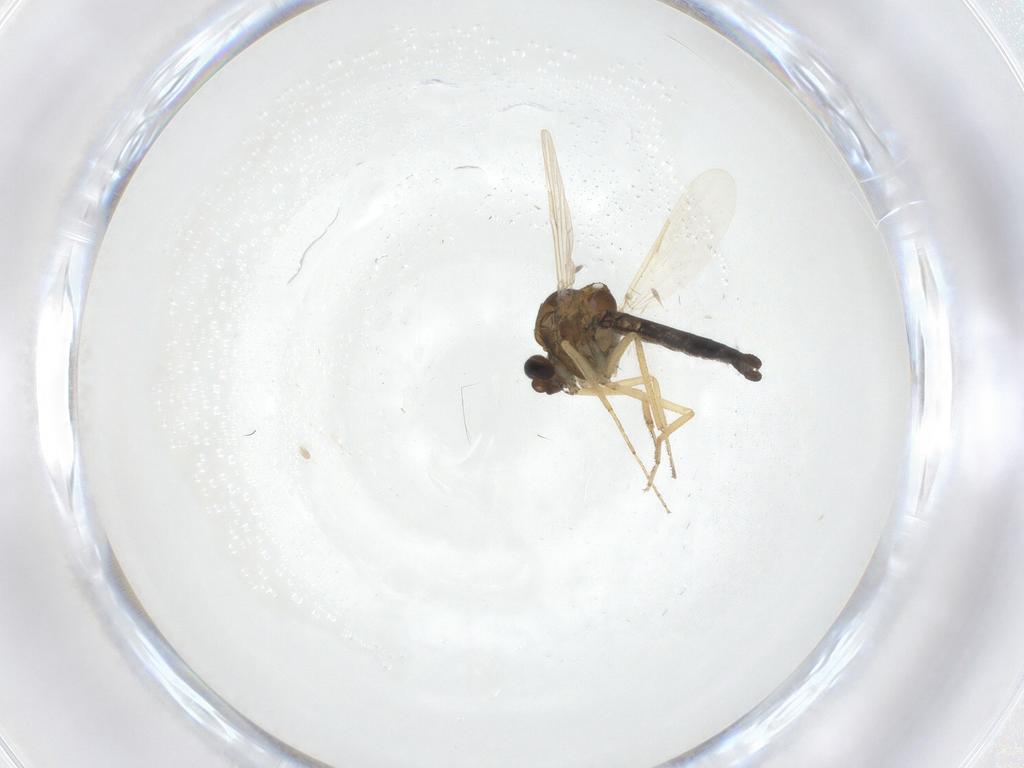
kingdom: Animalia
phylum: Arthropoda
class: Insecta
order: Diptera
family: Ceratopogonidae
